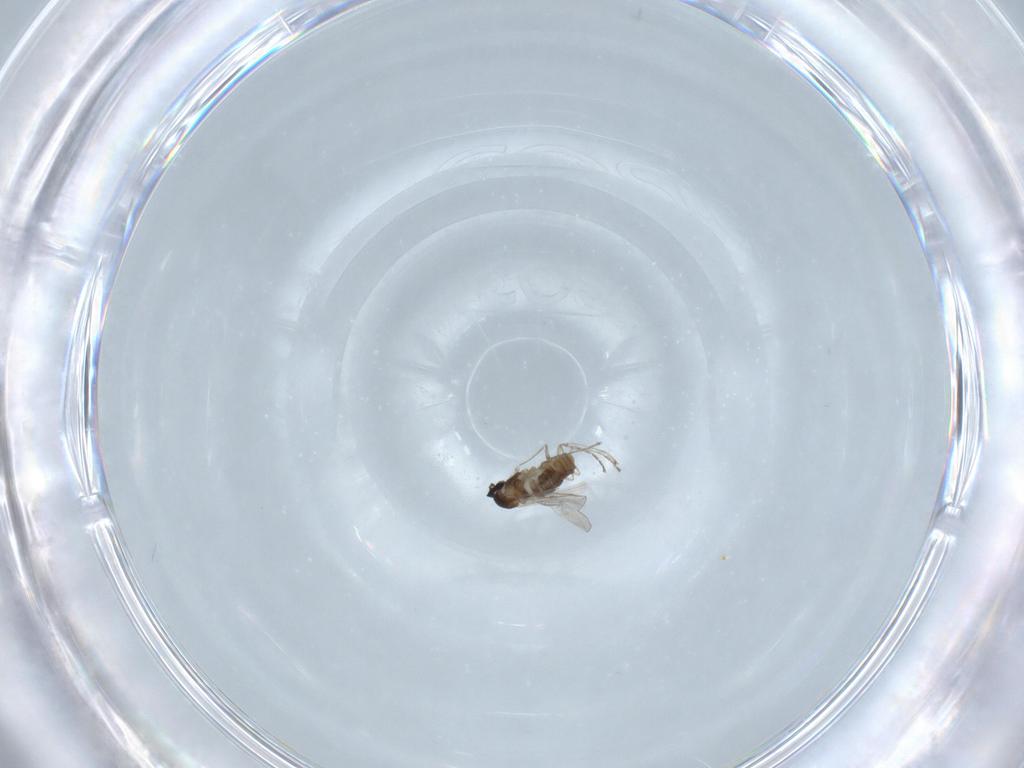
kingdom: Animalia
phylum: Arthropoda
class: Insecta
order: Diptera
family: Cecidomyiidae
